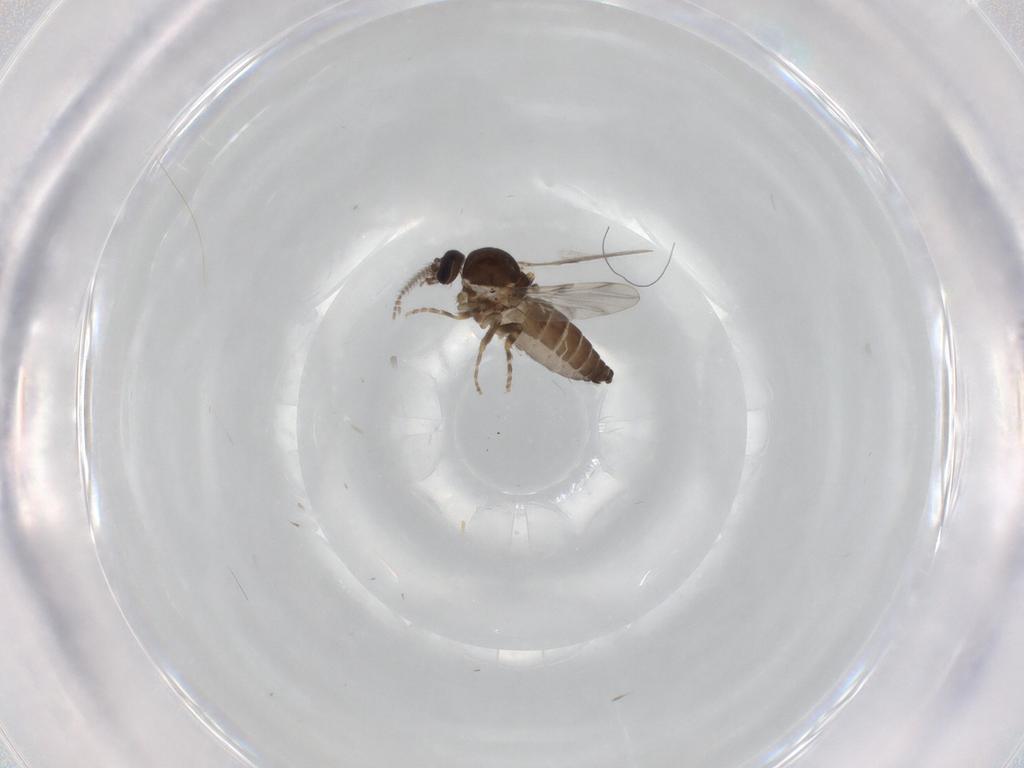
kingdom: Animalia
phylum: Arthropoda
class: Insecta
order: Diptera
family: Ceratopogonidae
